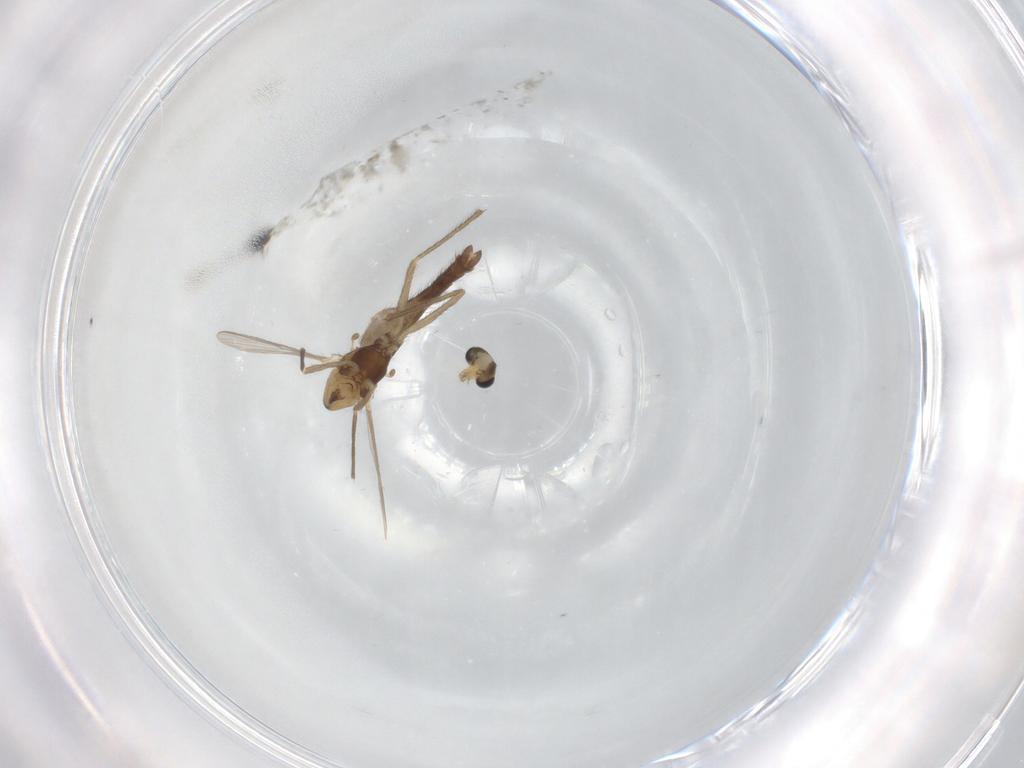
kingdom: Animalia
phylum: Arthropoda
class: Insecta
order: Diptera
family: Chironomidae
